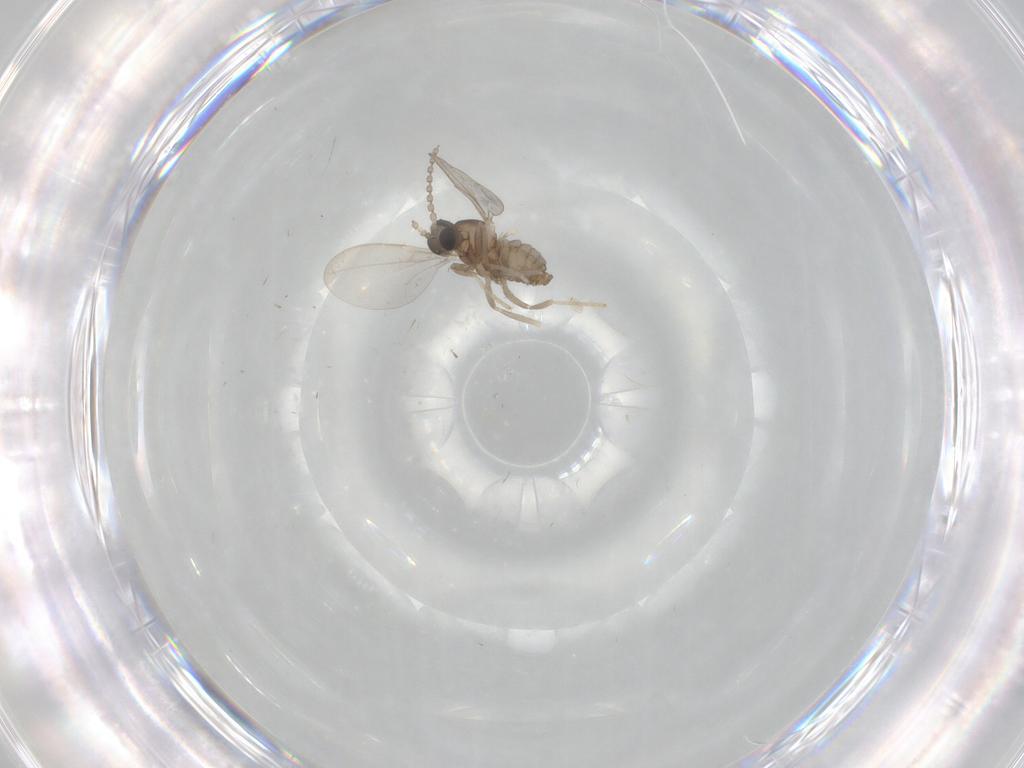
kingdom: Animalia
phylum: Arthropoda
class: Insecta
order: Diptera
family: Cecidomyiidae
